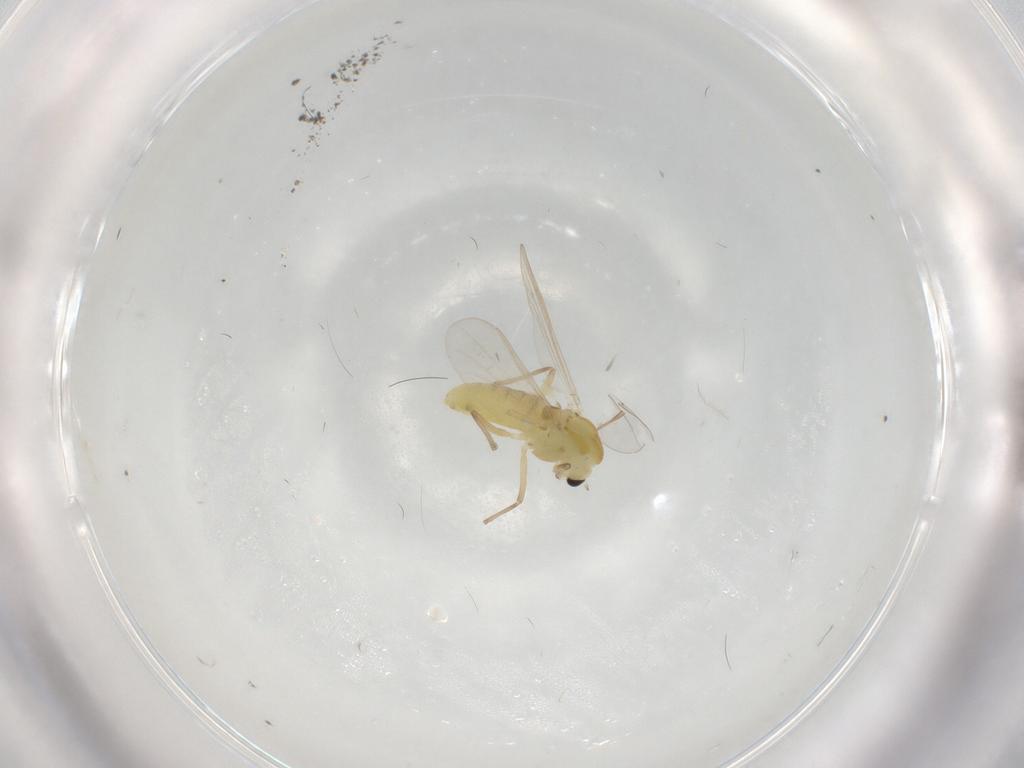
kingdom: Animalia
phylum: Arthropoda
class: Insecta
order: Diptera
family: Chironomidae
